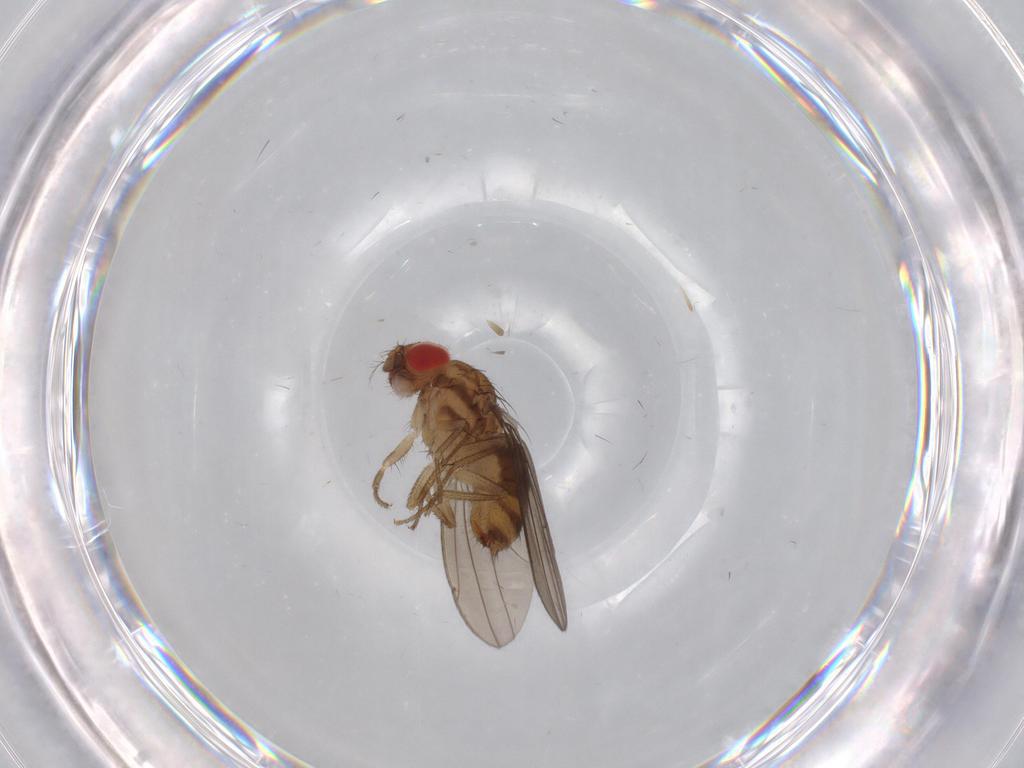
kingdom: Animalia
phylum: Arthropoda
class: Insecta
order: Diptera
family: Drosophilidae
